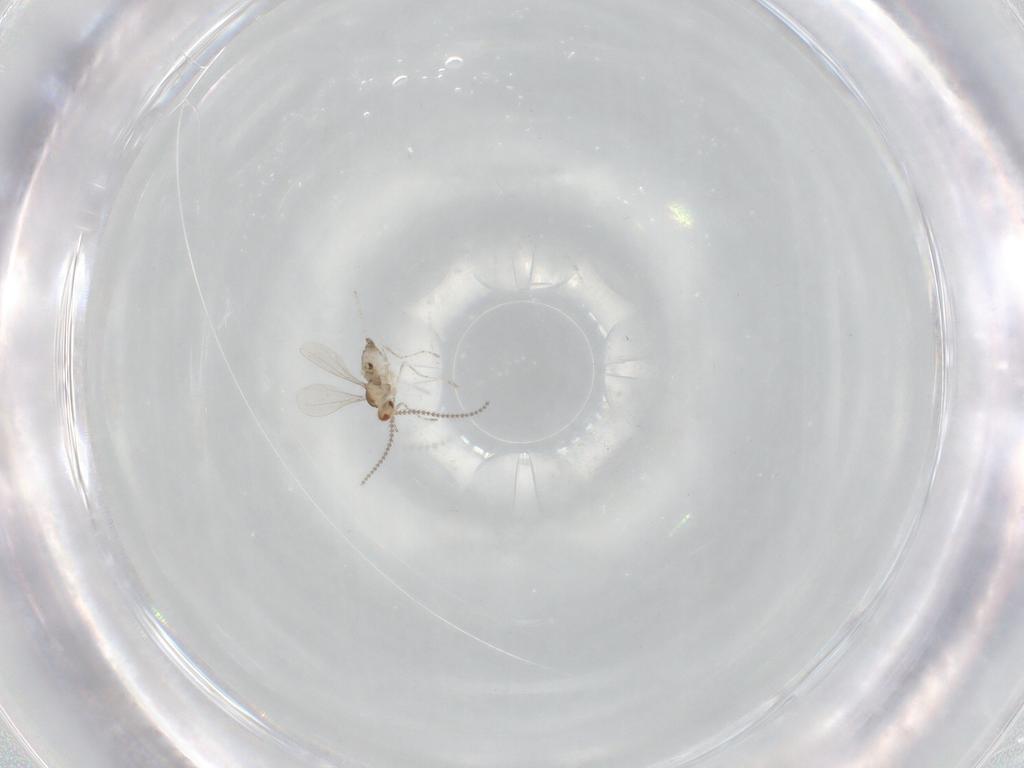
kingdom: Animalia
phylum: Arthropoda
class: Insecta
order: Diptera
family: Cecidomyiidae
